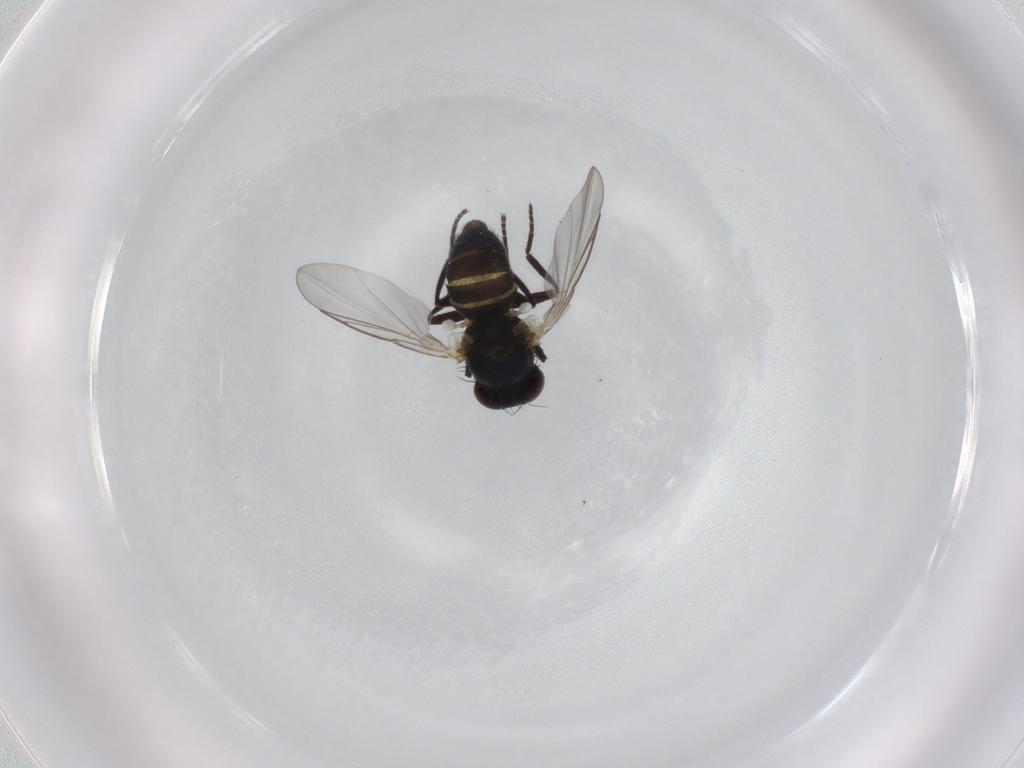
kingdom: Animalia
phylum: Arthropoda
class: Insecta
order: Diptera
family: Agromyzidae
